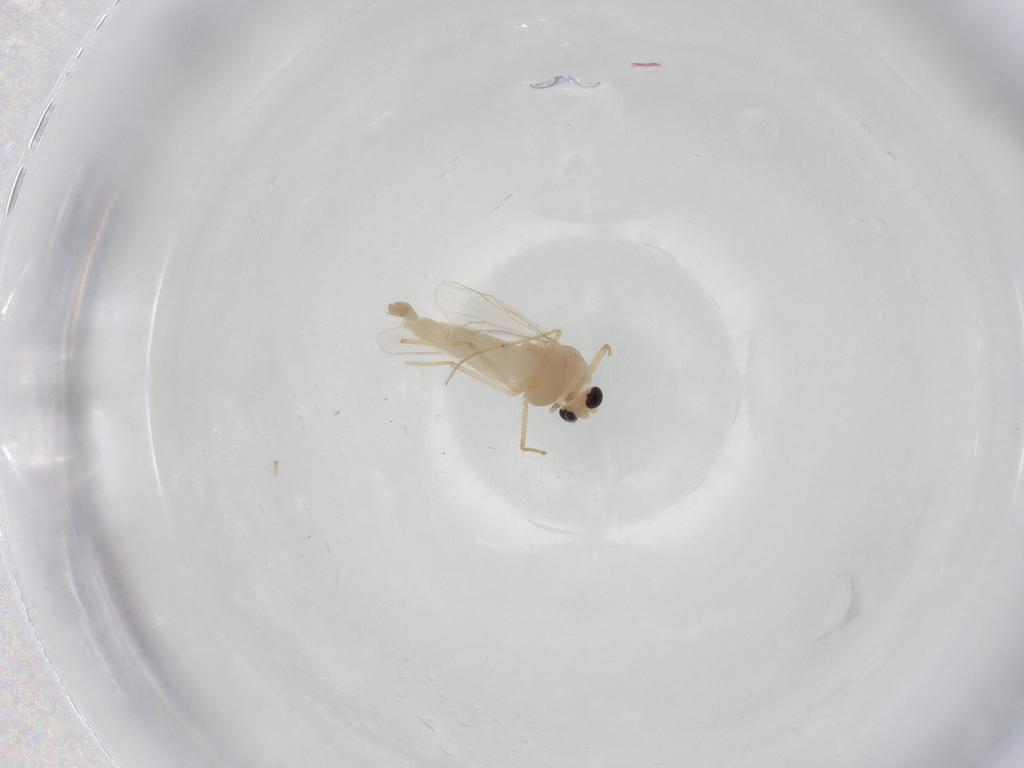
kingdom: Animalia
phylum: Arthropoda
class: Insecta
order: Diptera
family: Chironomidae
